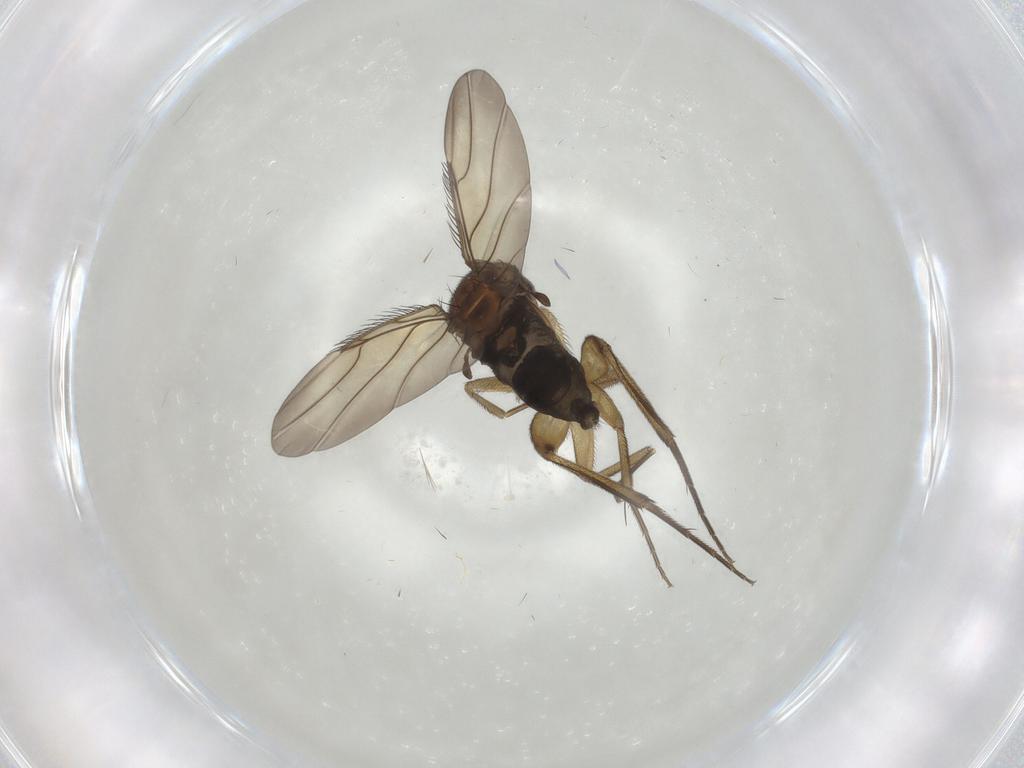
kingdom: Animalia
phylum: Arthropoda
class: Insecta
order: Diptera
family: Phoridae
